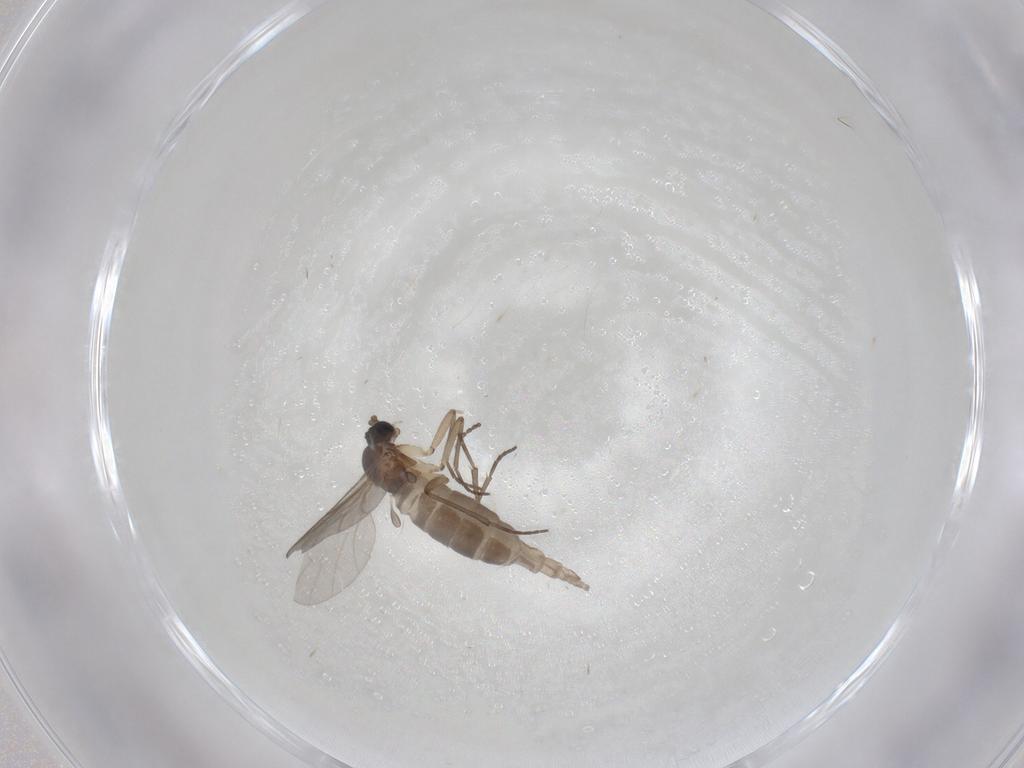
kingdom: Animalia
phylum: Arthropoda
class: Insecta
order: Diptera
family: Sciaridae
